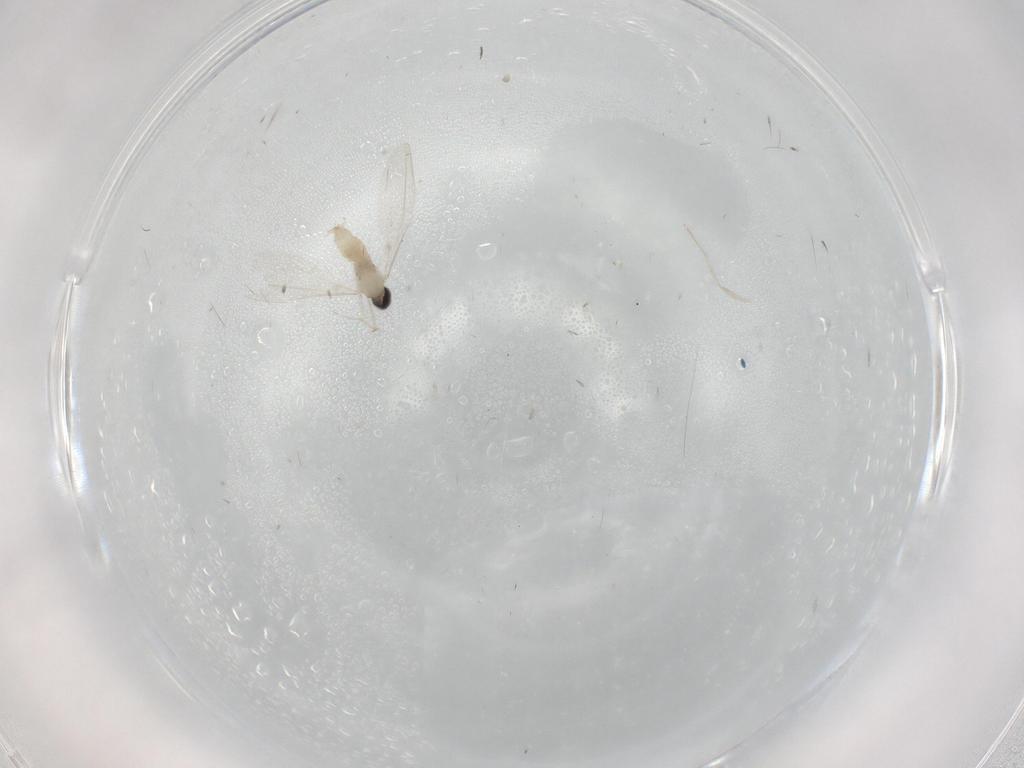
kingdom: Animalia
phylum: Arthropoda
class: Insecta
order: Diptera
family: Cecidomyiidae
